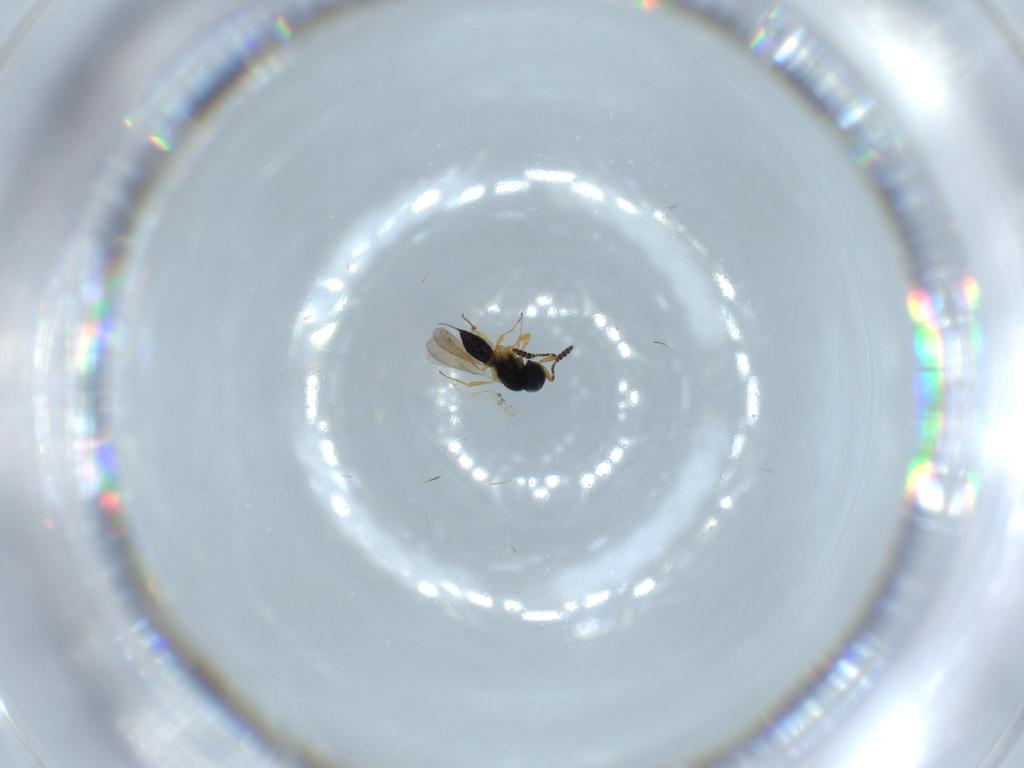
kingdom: Animalia
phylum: Arthropoda
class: Insecta
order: Hymenoptera
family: Scelionidae
